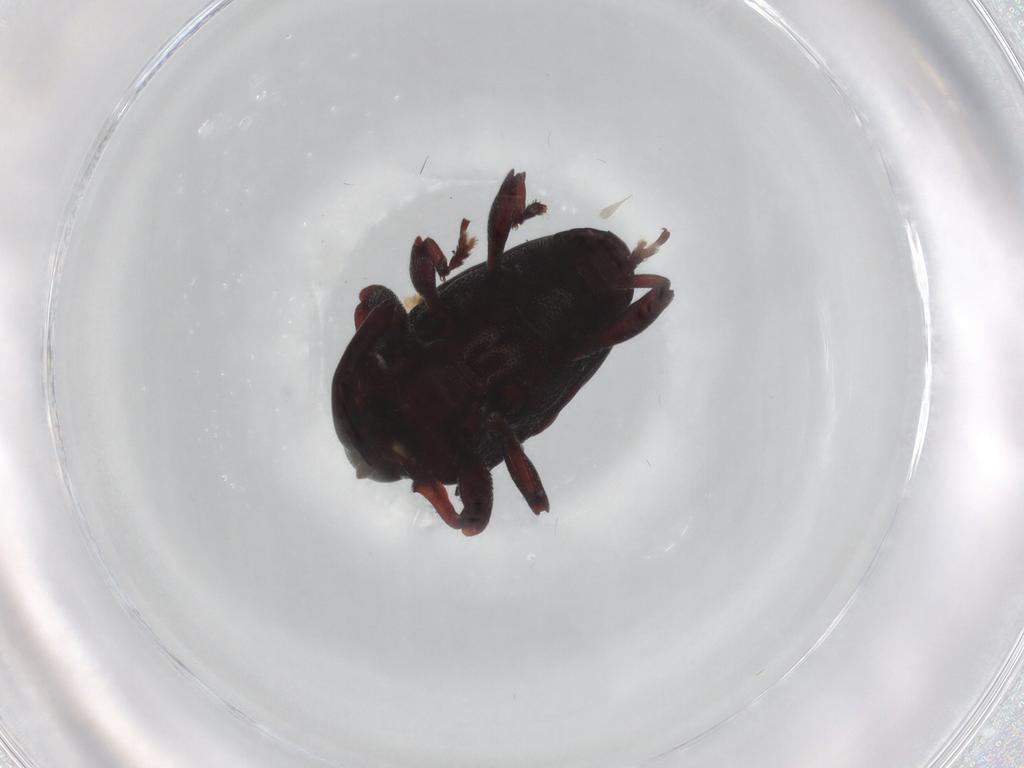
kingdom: Animalia
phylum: Arthropoda
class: Insecta
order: Coleoptera
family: Curculionidae
